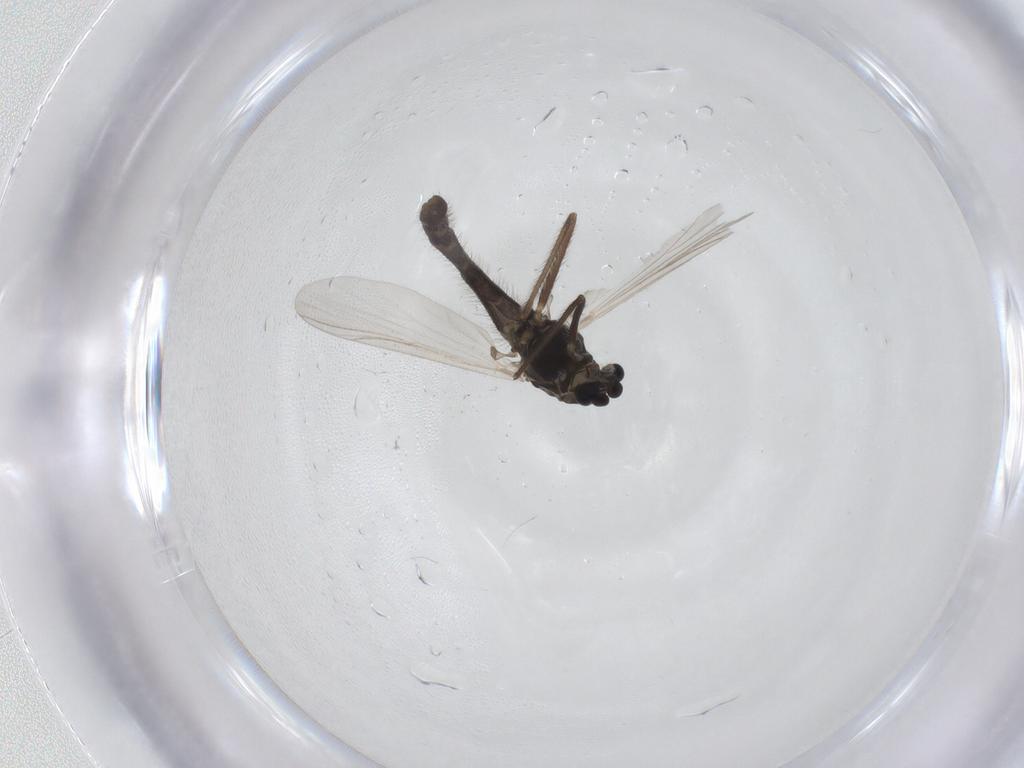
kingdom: Animalia
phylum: Arthropoda
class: Insecta
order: Diptera
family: Chironomidae
